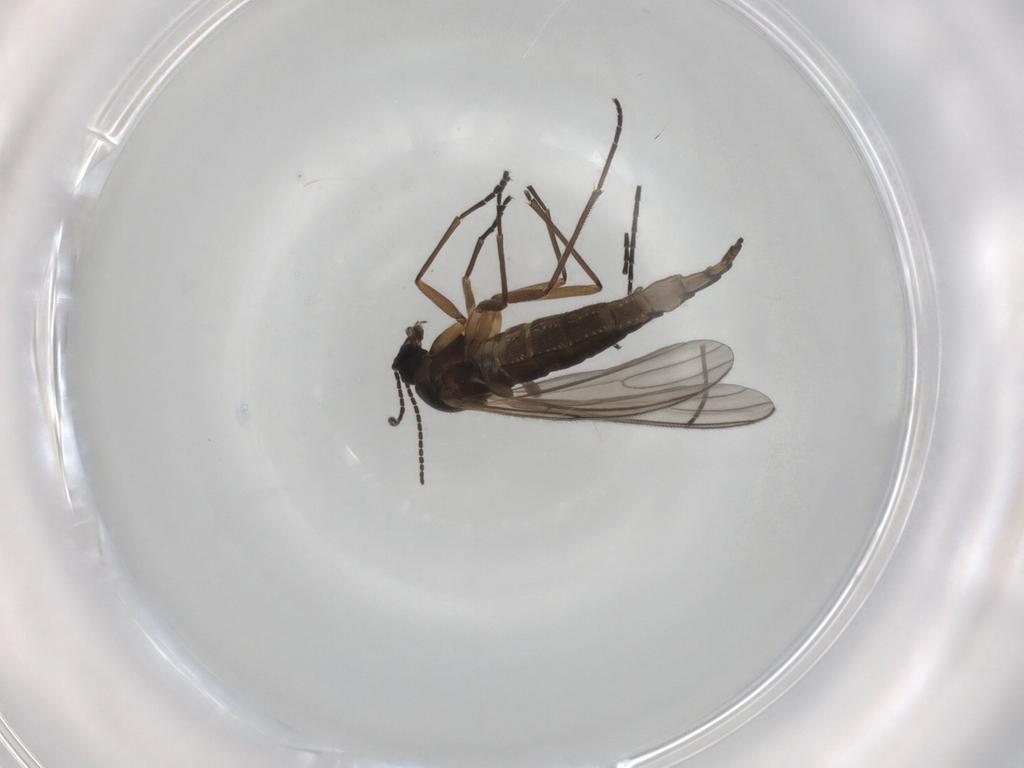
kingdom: Animalia
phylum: Arthropoda
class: Insecta
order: Diptera
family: Sciaridae
